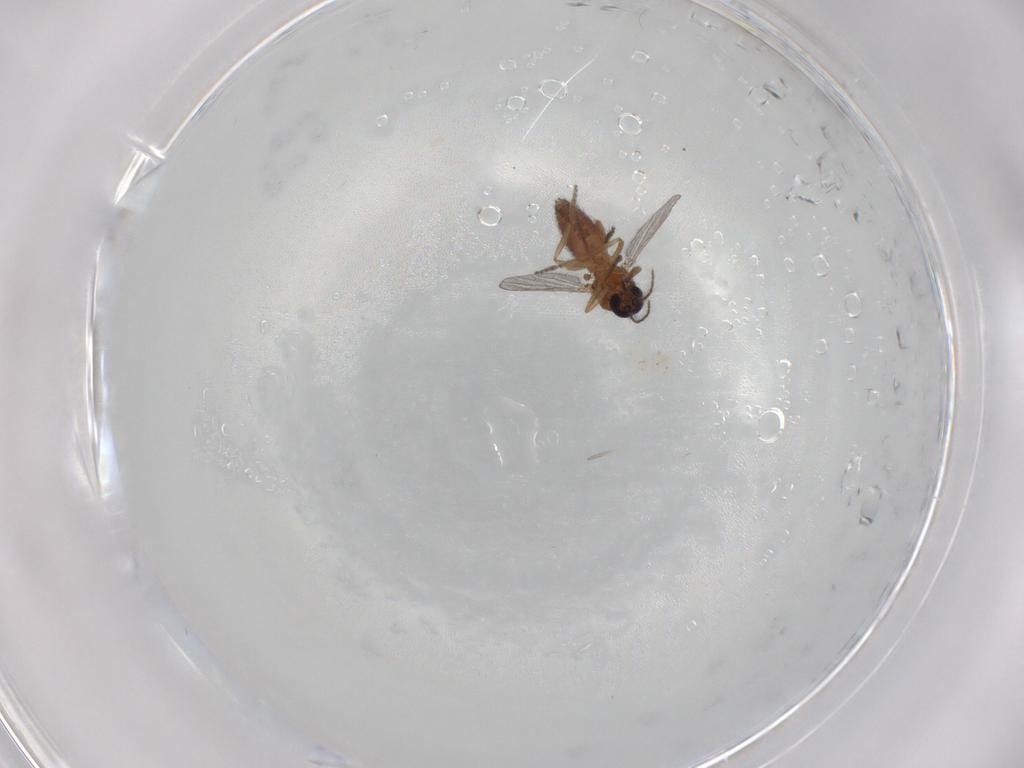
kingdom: Animalia
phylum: Arthropoda
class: Insecta
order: Diptera
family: Ceratopogonidae
